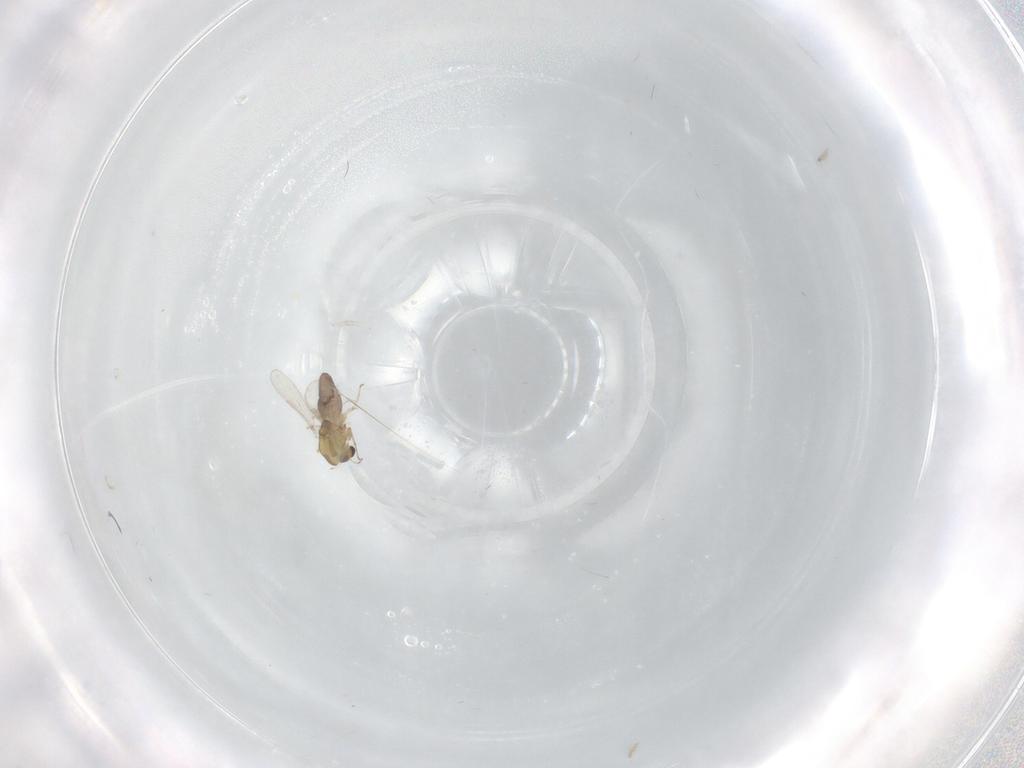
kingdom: Animalia
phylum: Arthropoda
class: Insecta
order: Diptera
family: Chironomidae
